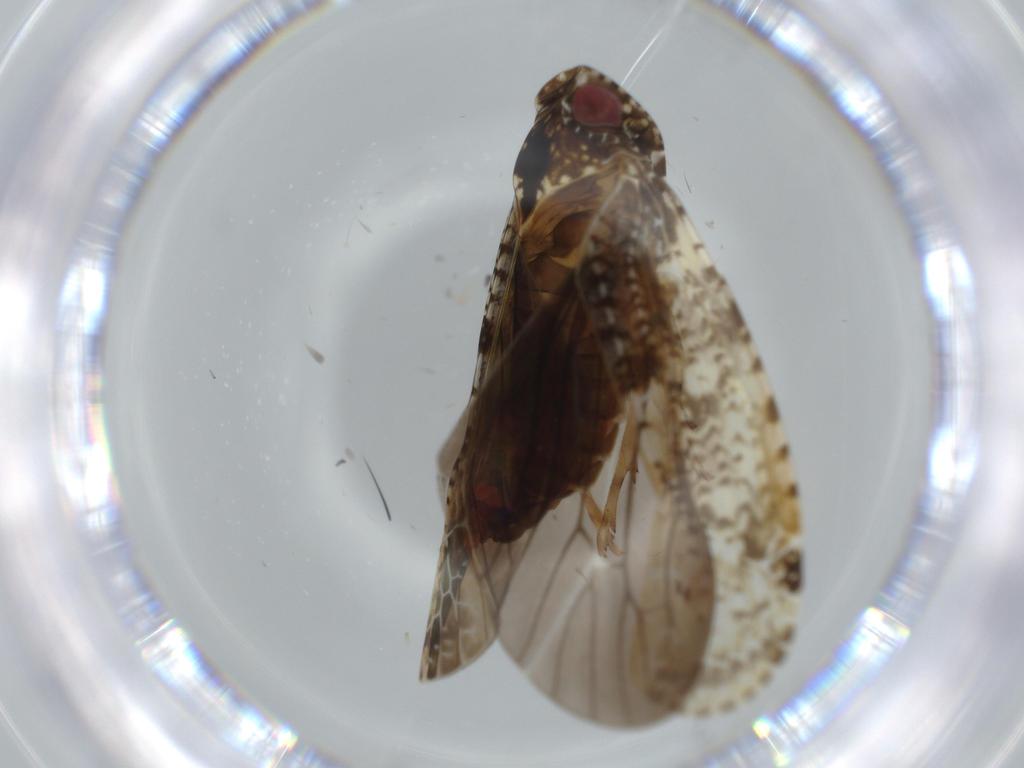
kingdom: Animalia
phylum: Arthropoda
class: Insecta
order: Hemiptera
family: Achilidae
